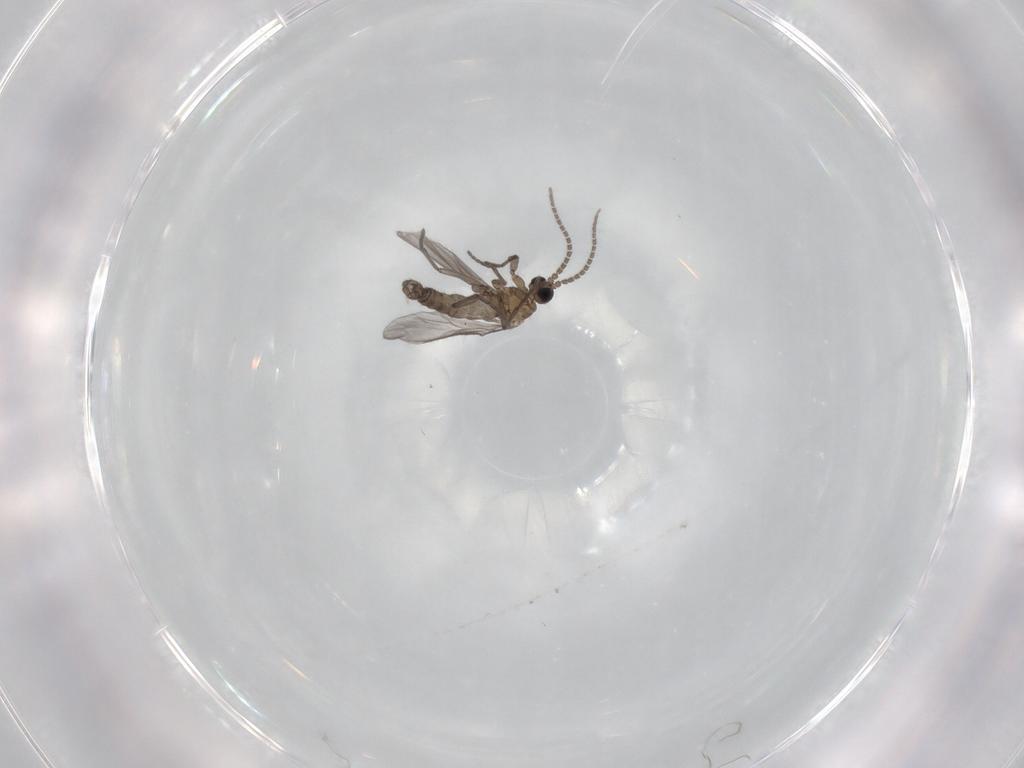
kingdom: Animalia
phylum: Arthropoda
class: Insecta
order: Diptera
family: Sciaridae
